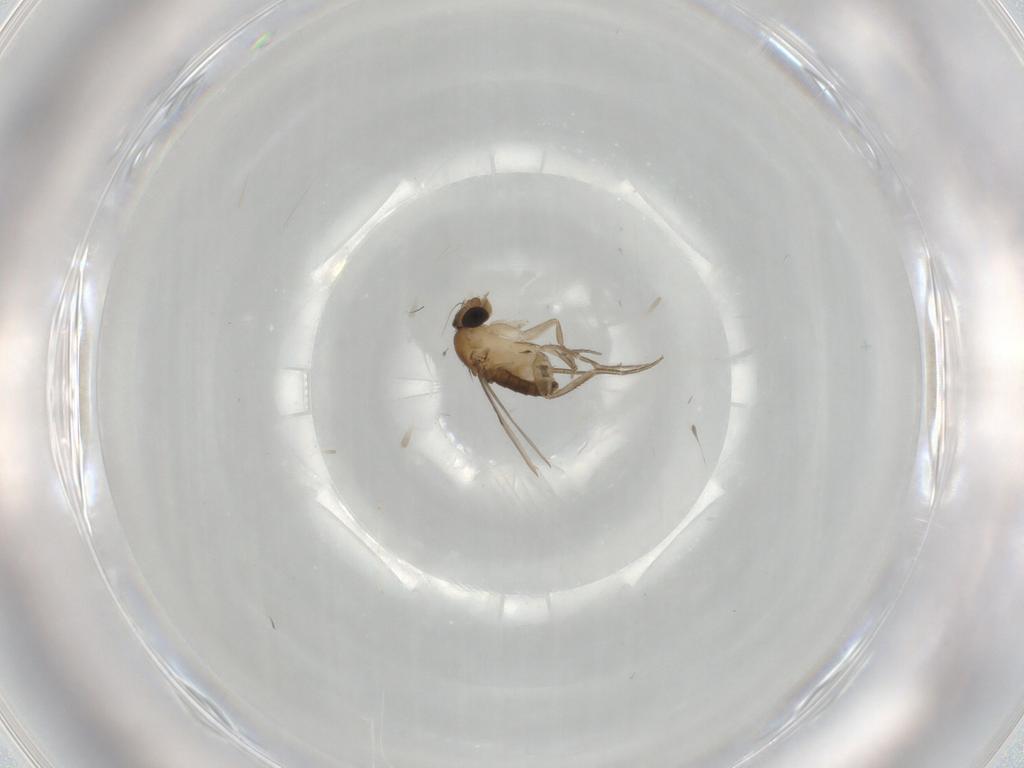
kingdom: Animalia
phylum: Arthropoda
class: Insecta
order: Diptera
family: Phoridae
